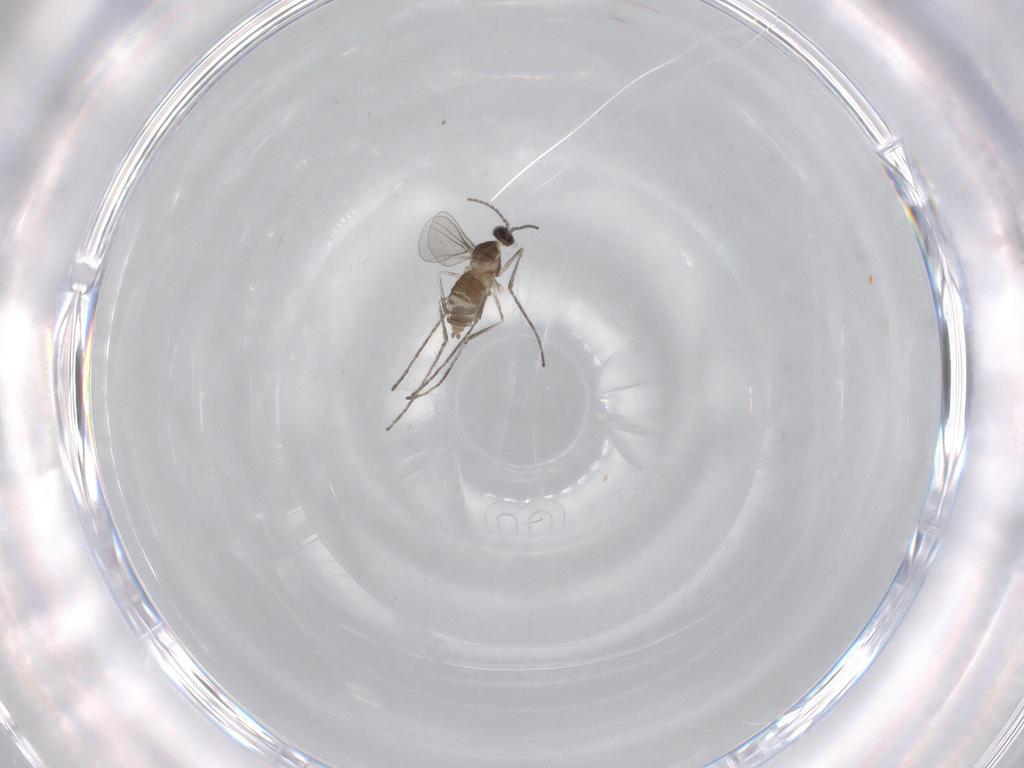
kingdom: Animalia
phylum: Arthropoda
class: Insecta
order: Diptera
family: Cecidomyiidae
